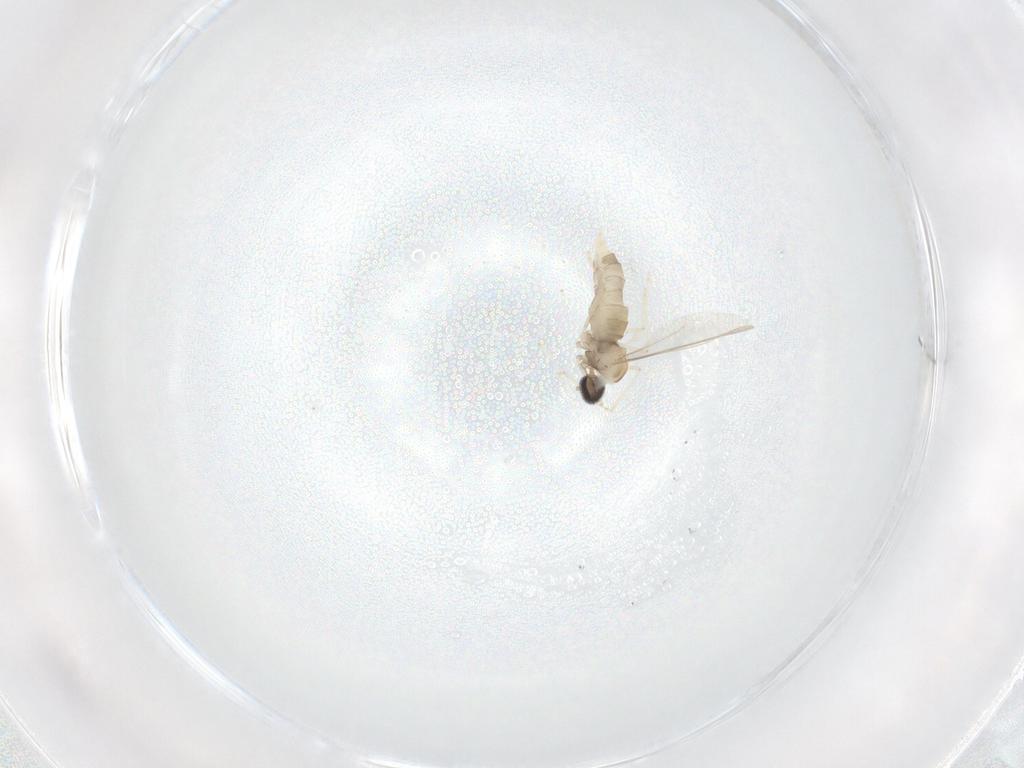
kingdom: Animalia
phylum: Arthropoda
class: Insecta
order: Diptera
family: Cecidomyiidae
